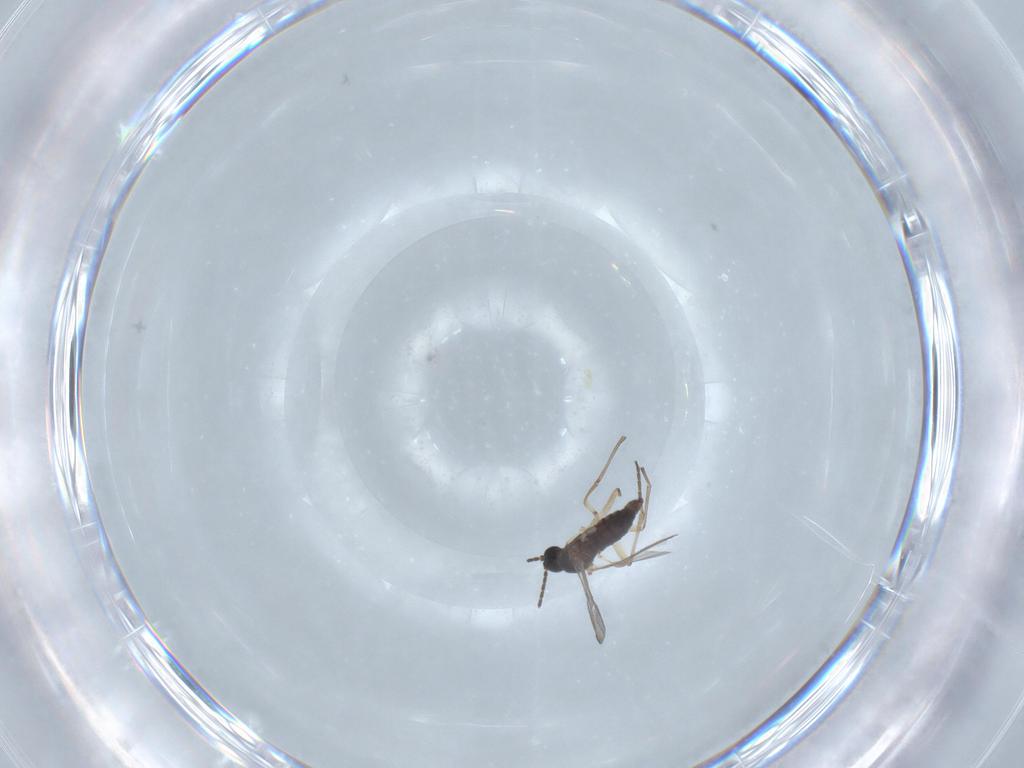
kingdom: Animalia
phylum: Arthropoda
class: Insecta
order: Diptera
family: Sciaridae
